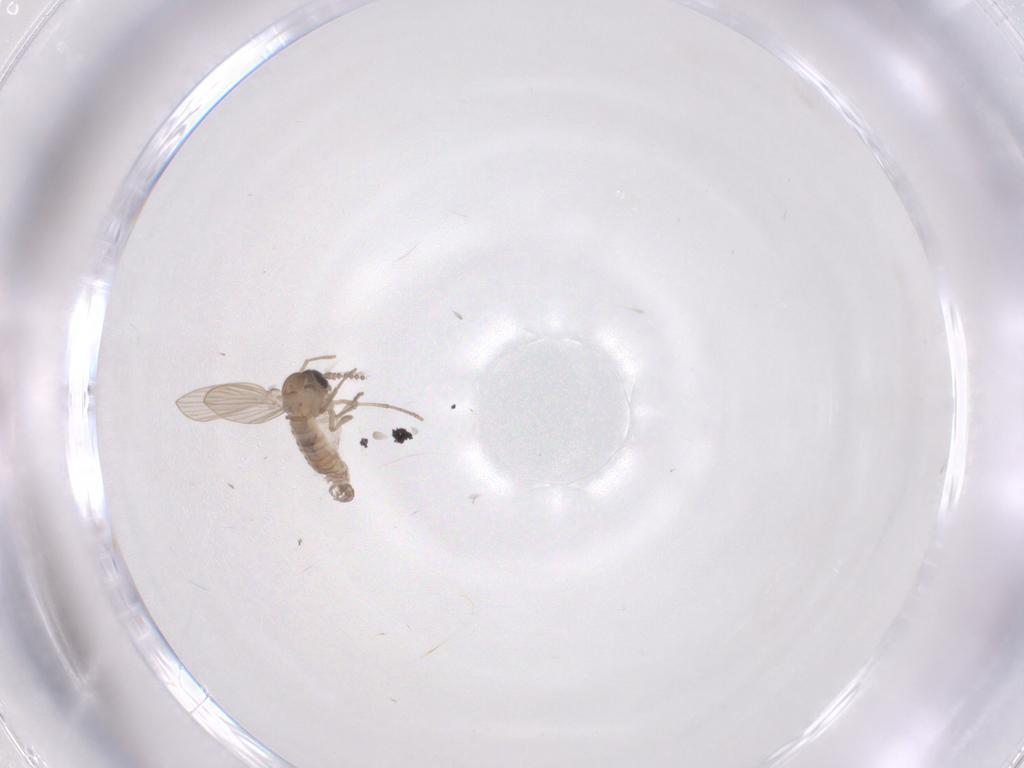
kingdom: Animalia
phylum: Arthropoda
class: Insecta
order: Diptera
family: Psychodidae
